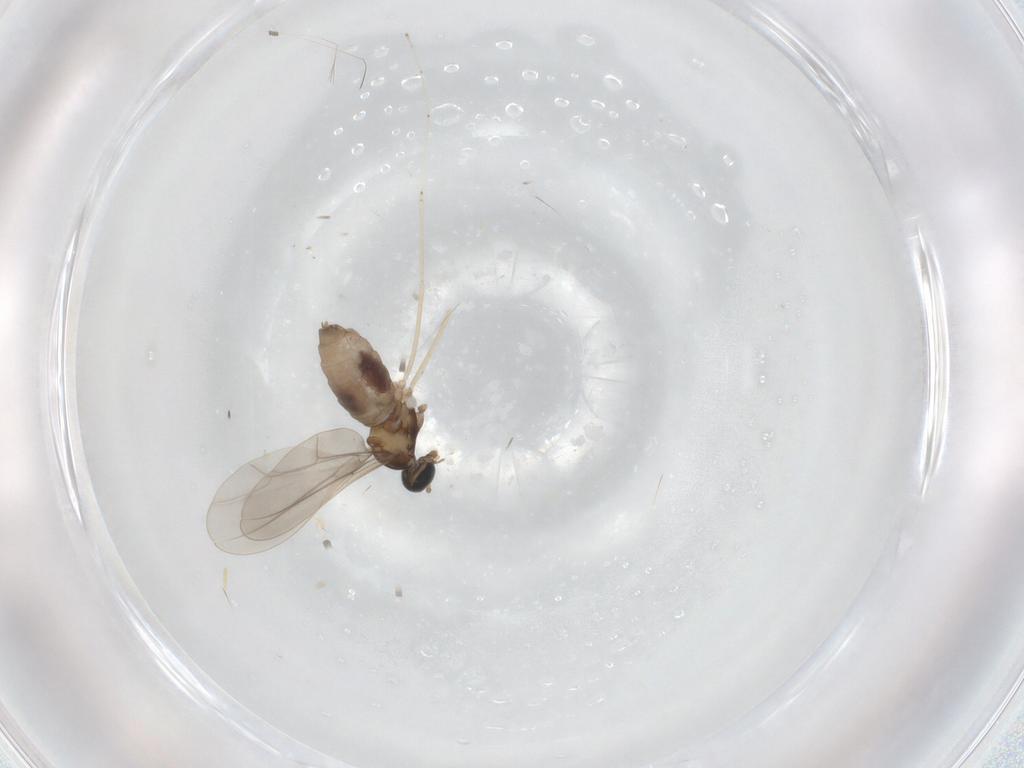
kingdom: Animalia
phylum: Arthropoda
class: Insecta
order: Diptera
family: Cecidomyiidae
